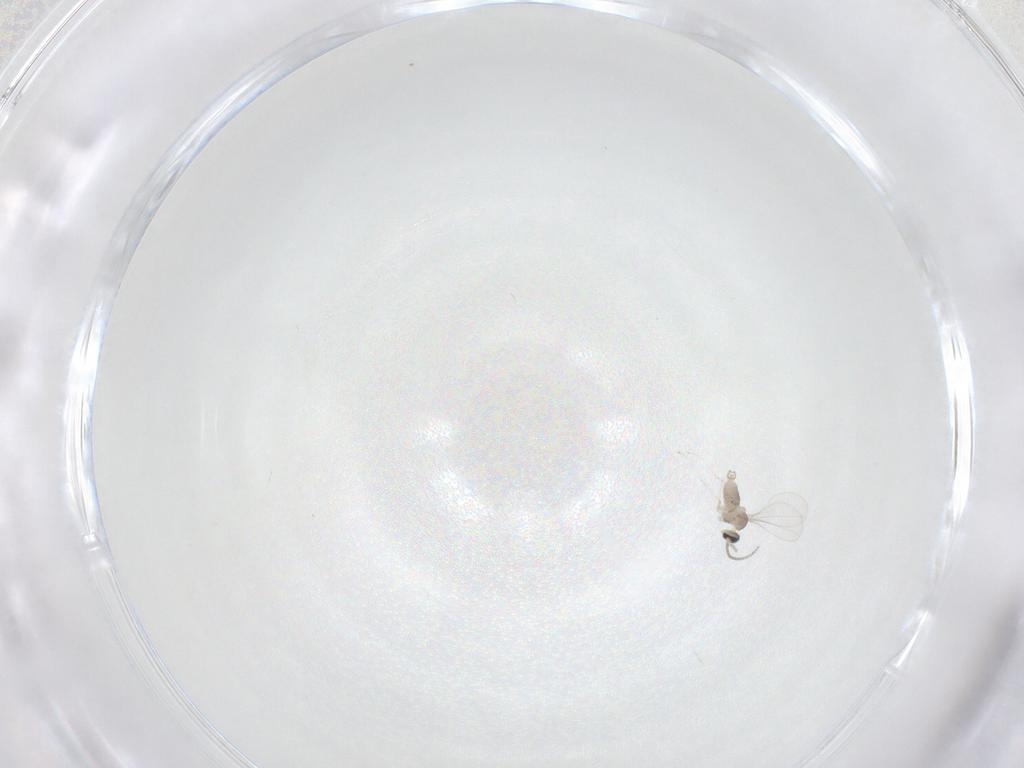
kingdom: Animalia
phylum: Arthropoda
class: Insecta
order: Diptera
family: Cecidomyiidae
